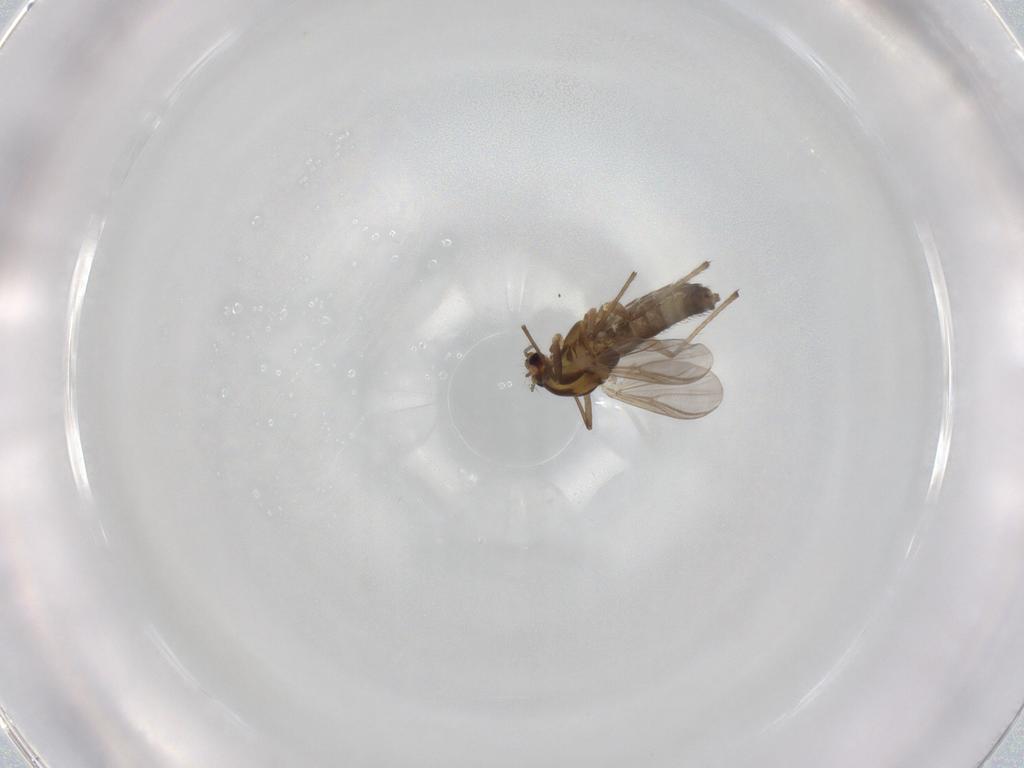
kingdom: Animalia
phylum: Arthropoda
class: Insecta
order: Diptera
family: Chironomidae
